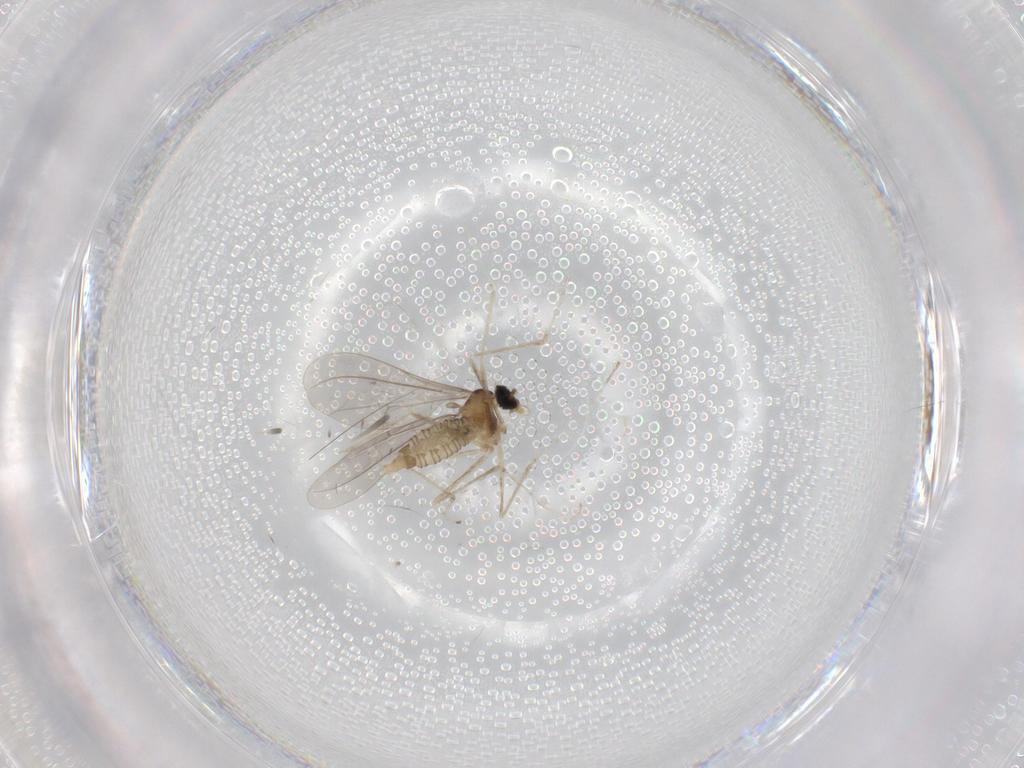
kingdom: Animalia
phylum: Arthropoda
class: Insecta
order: Diptera
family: Cecidomyiidae
